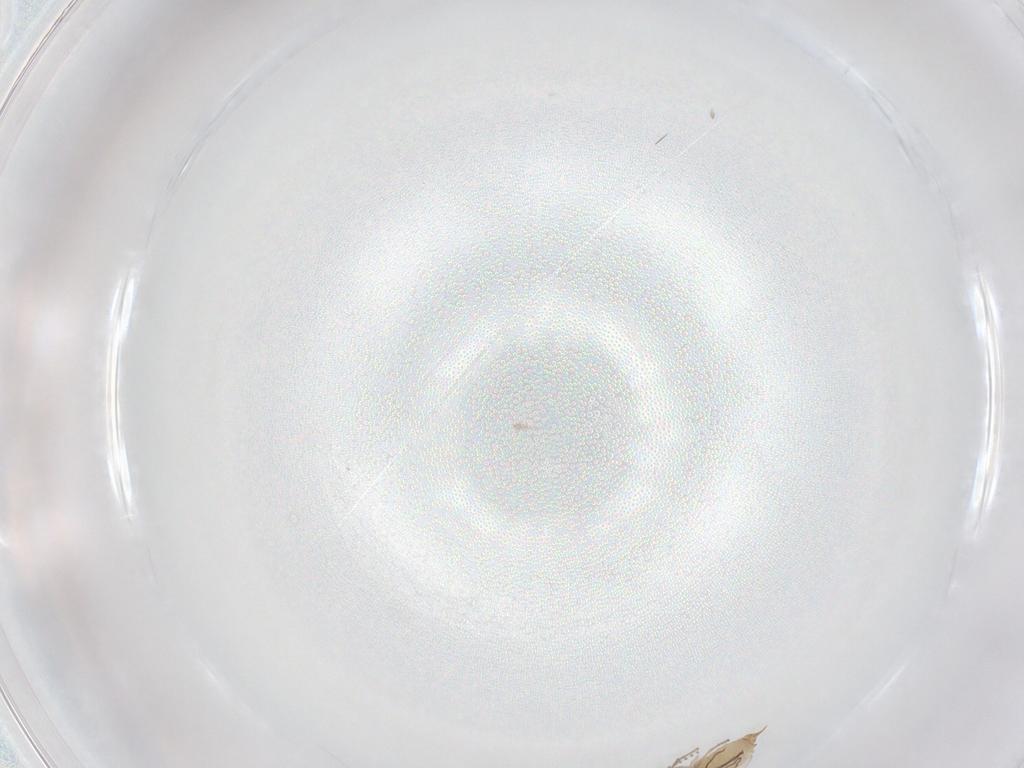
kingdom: Animalia
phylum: Arthropoda
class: Insecta
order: Diptera
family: Psychodidae
